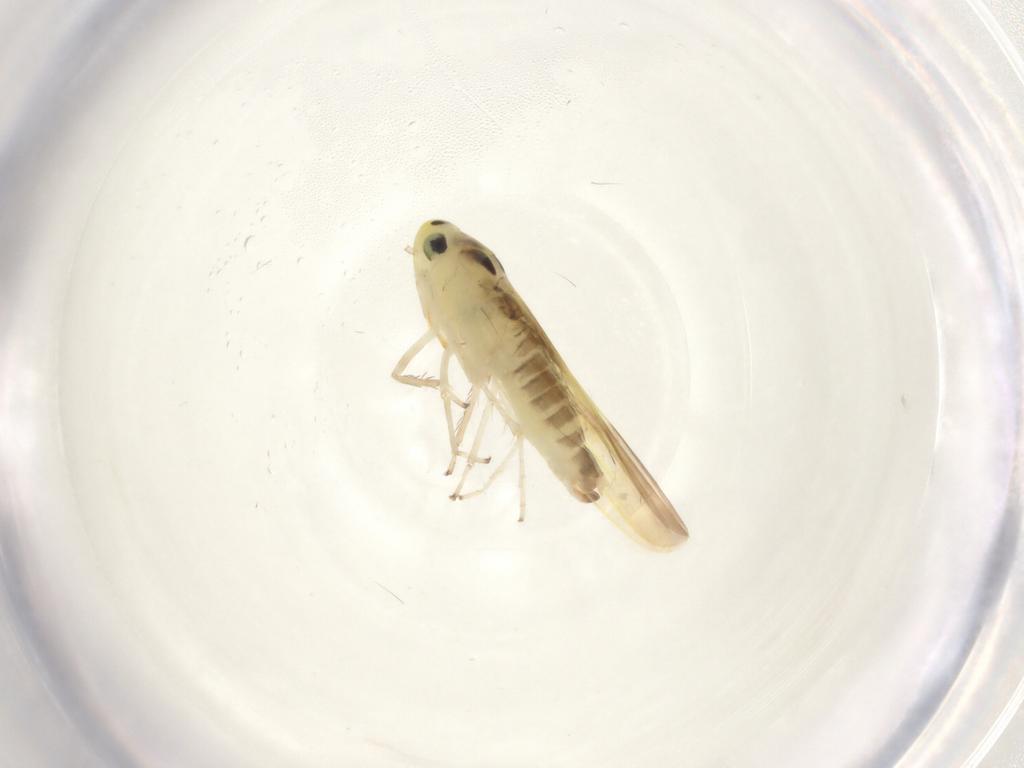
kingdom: Animalia
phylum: Arthropoda
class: Insecta
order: Hemiptera
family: Cicadellidae
